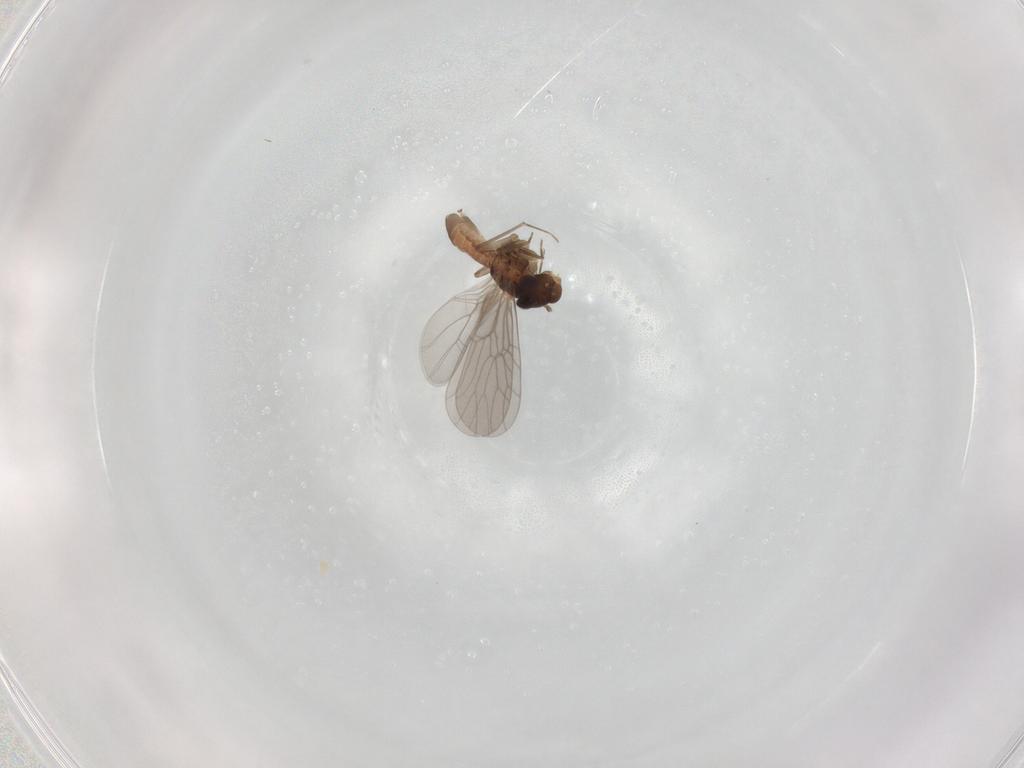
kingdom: Animalia
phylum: Arthropoda
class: Insecta
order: Psocodea
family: Lepidopsocidae
